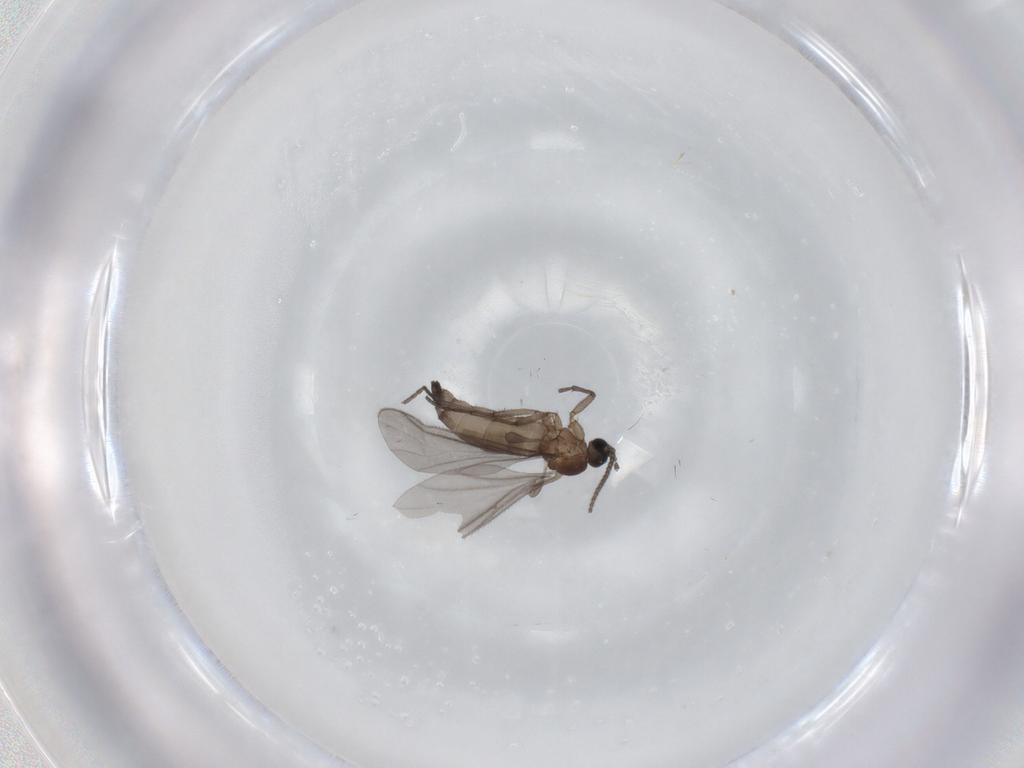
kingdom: Animalia
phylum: Arthropoda
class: Insecta
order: Diptera
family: Sciaridae
